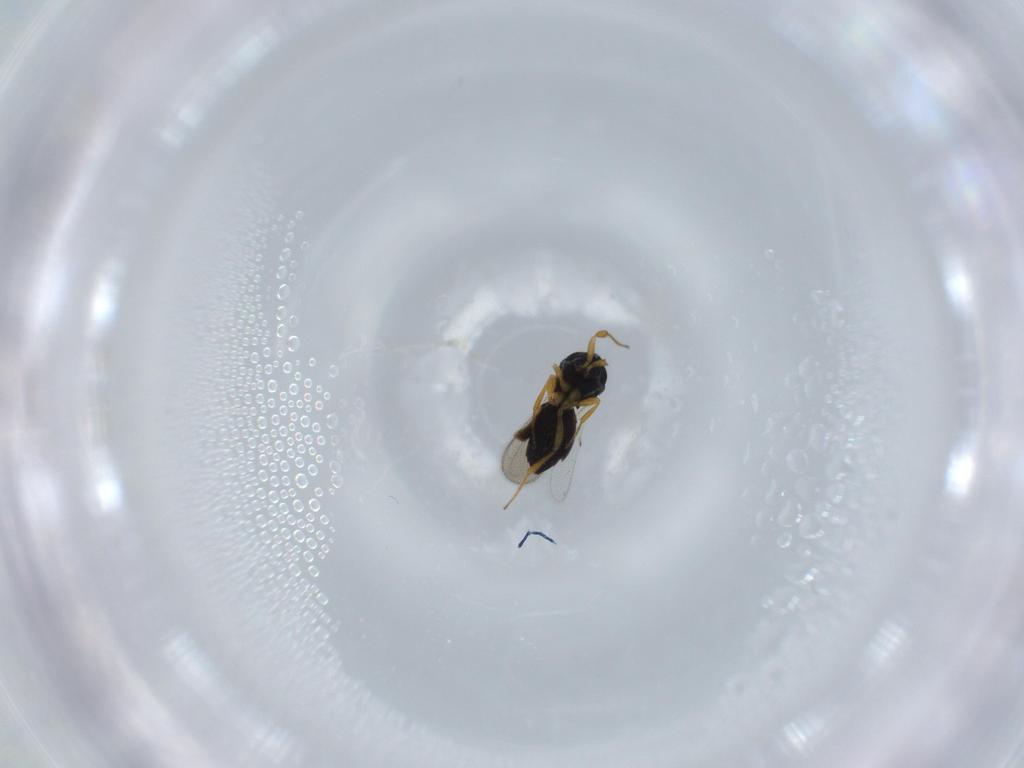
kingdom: Animalia
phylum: Arthropoda
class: Insecta
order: Hymenoptera
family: Scelionidae
